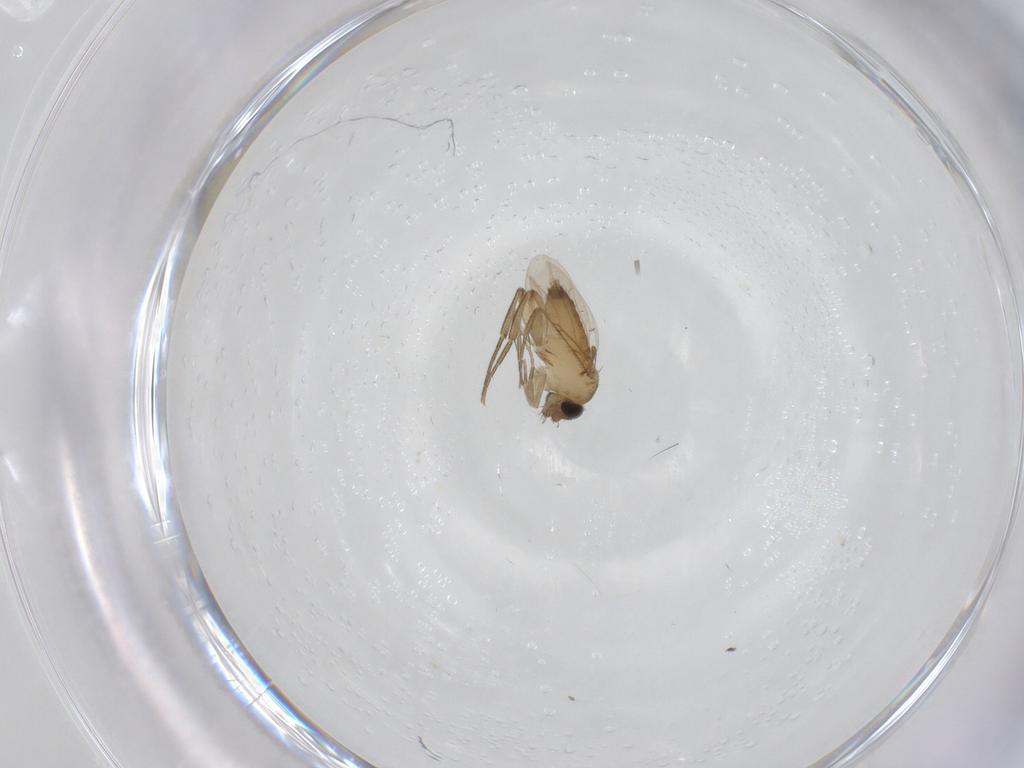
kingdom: Animalia
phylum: Arthropoda
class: Insecta
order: Diptera
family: Phoridae
